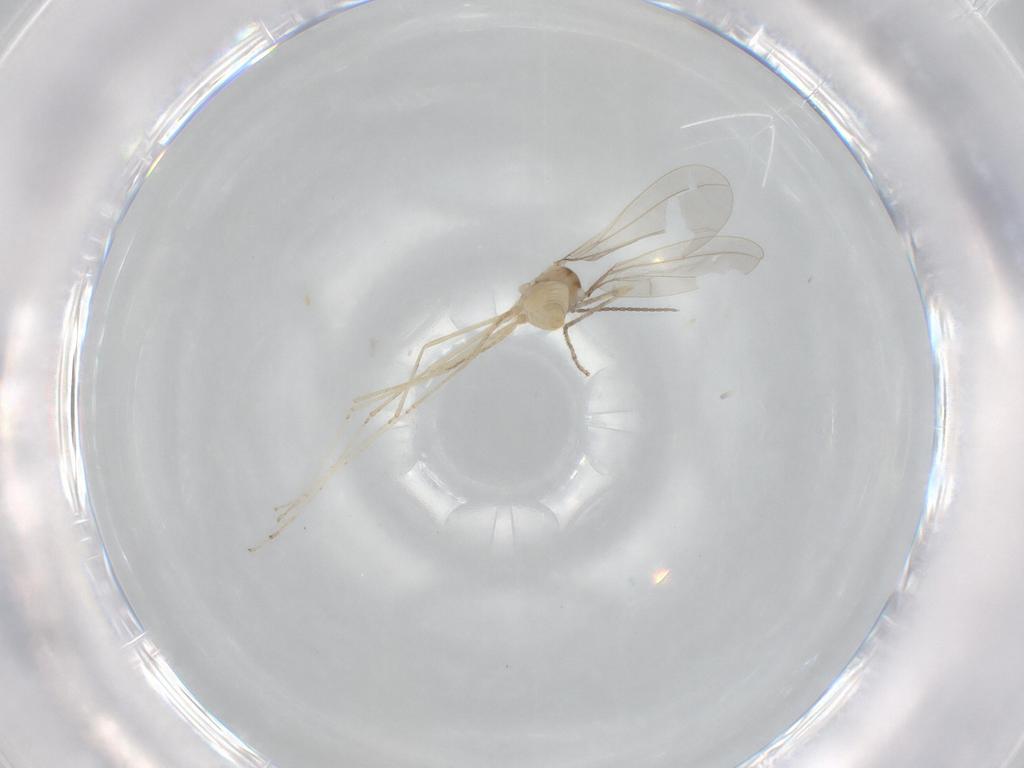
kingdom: Animalia
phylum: Arthropoda
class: Insecta
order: Diptera
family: Cecidomyiidae
